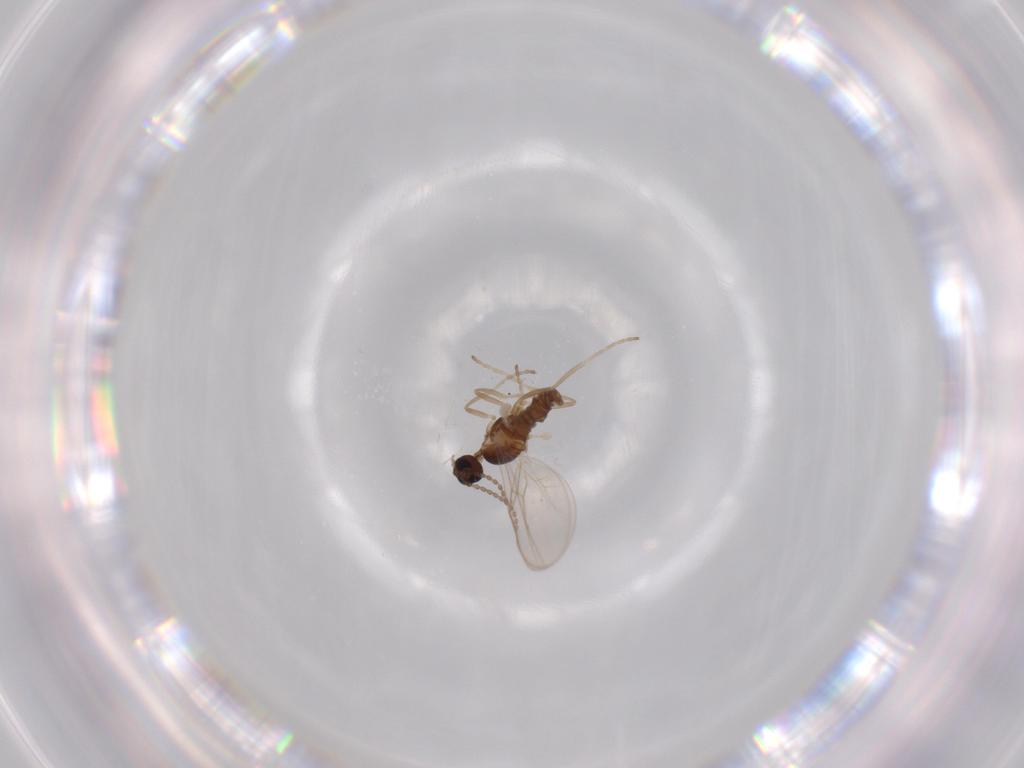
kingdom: Animalia
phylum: Arthropoda
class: Insecta
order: Diptera
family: Cecidomyiidae
